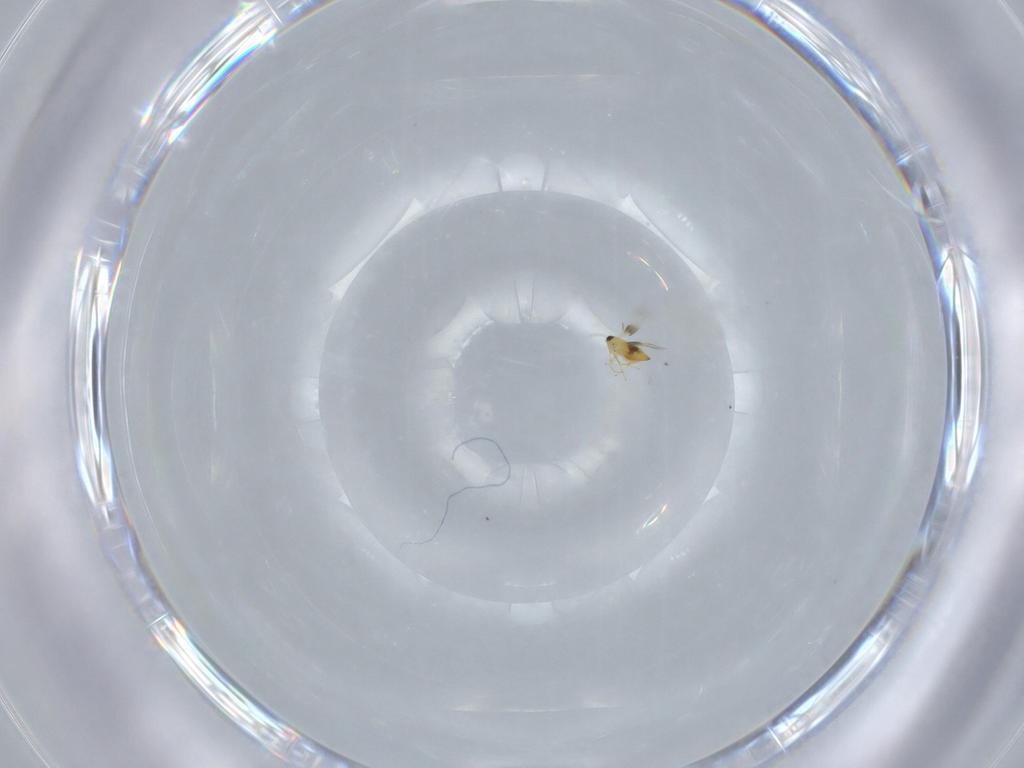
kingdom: Animalia
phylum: Arthropoda
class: Insecta
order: Hymenoptera
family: Signiphoridae
